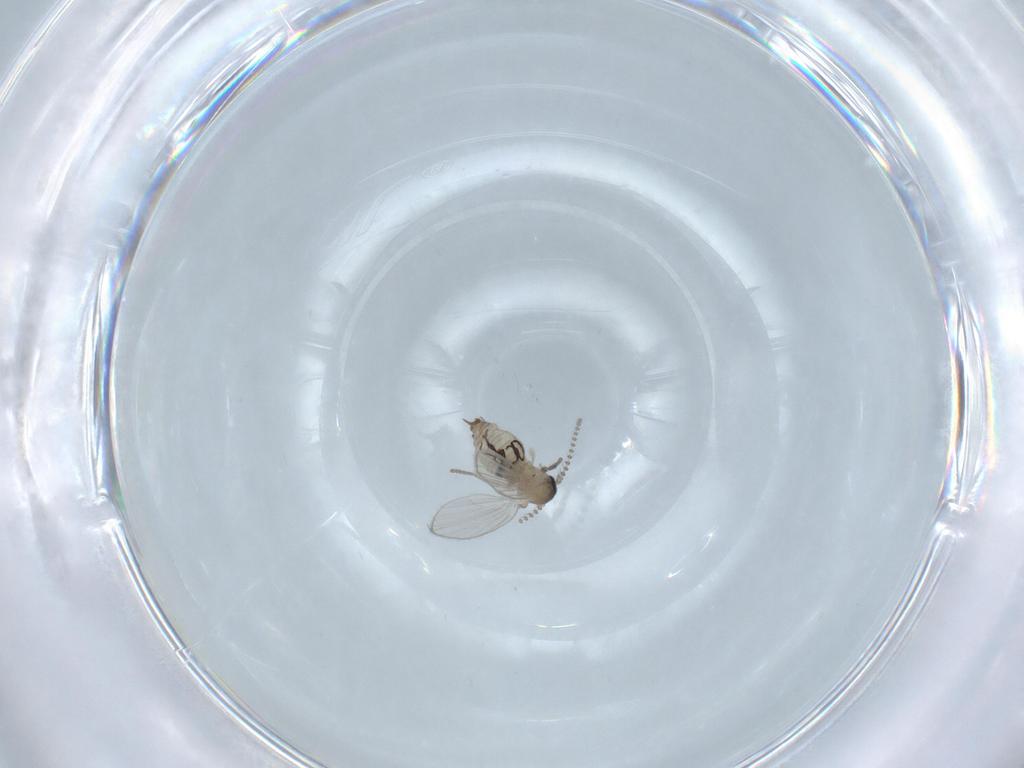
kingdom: Animalia
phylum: Arthropoda
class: Insecta
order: Diptera
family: Psychodidae
